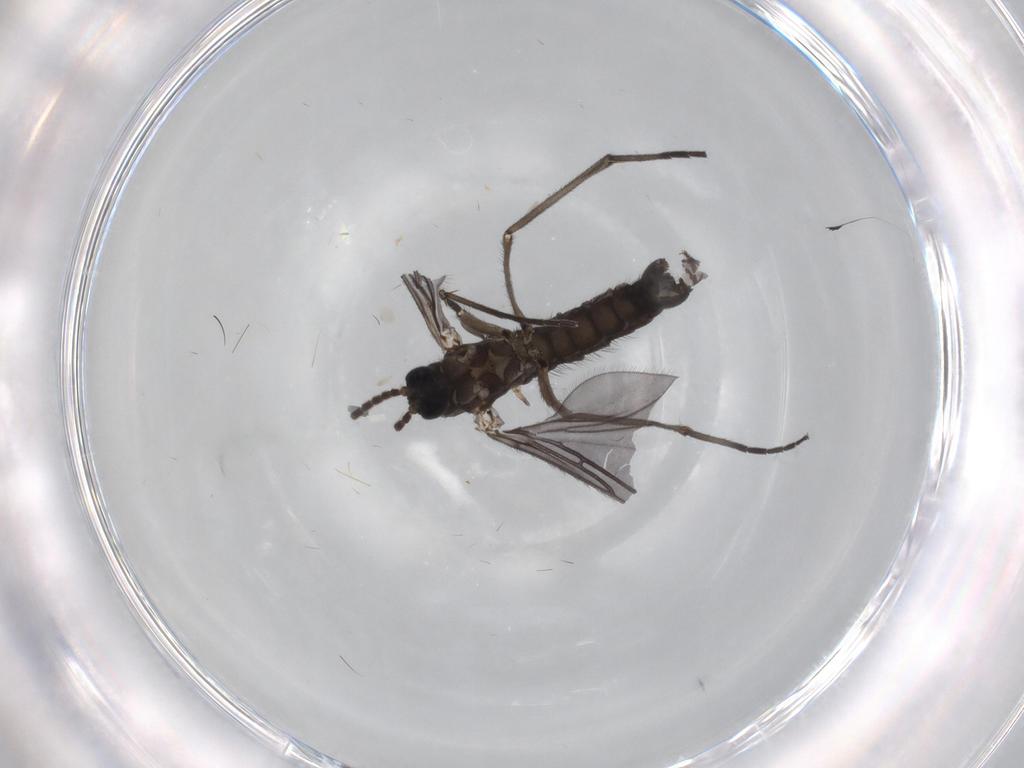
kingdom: Animalia
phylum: Arthropoda
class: Insecta
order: Diptera
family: Sciaridae
